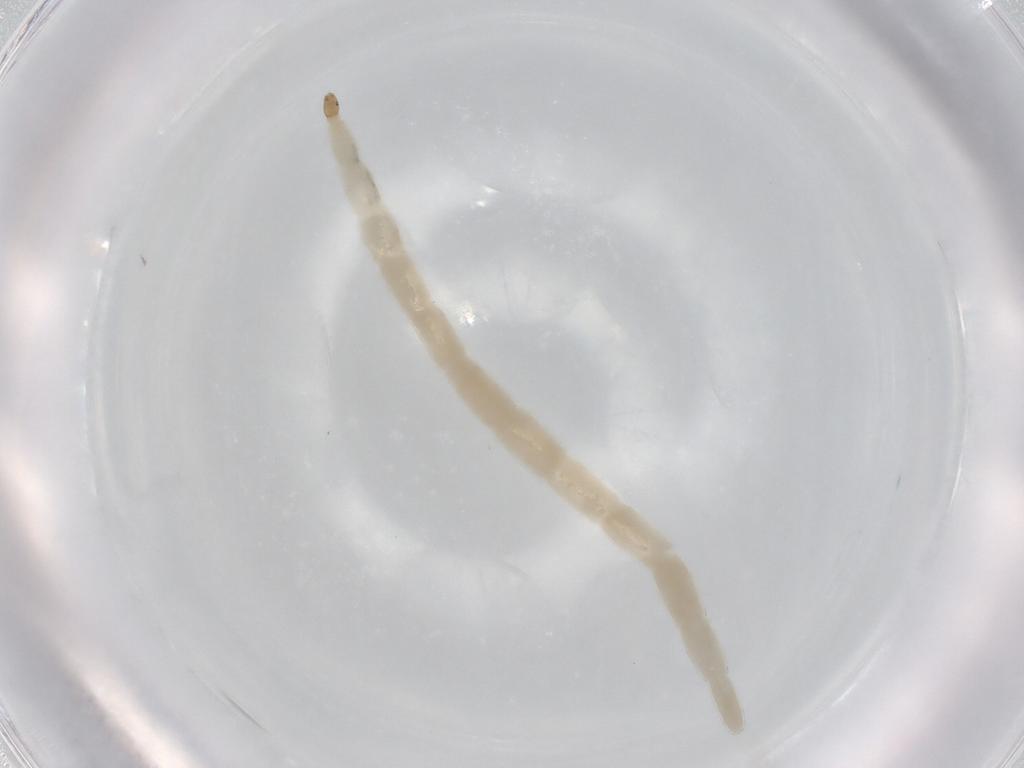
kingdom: Animalia
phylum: Arthropoda
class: Insecta
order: Diptera
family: Ceratopogonidae
